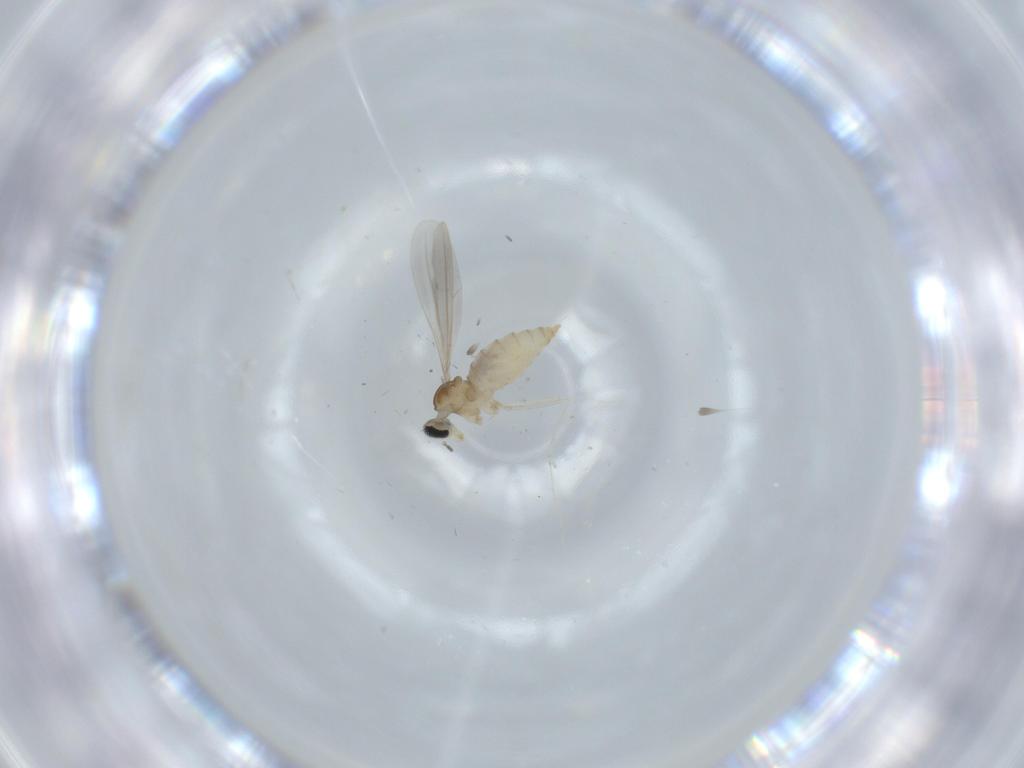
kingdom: Animalia
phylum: Arthropoda
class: Insecta
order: Diptera
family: Cecidomyiidae
